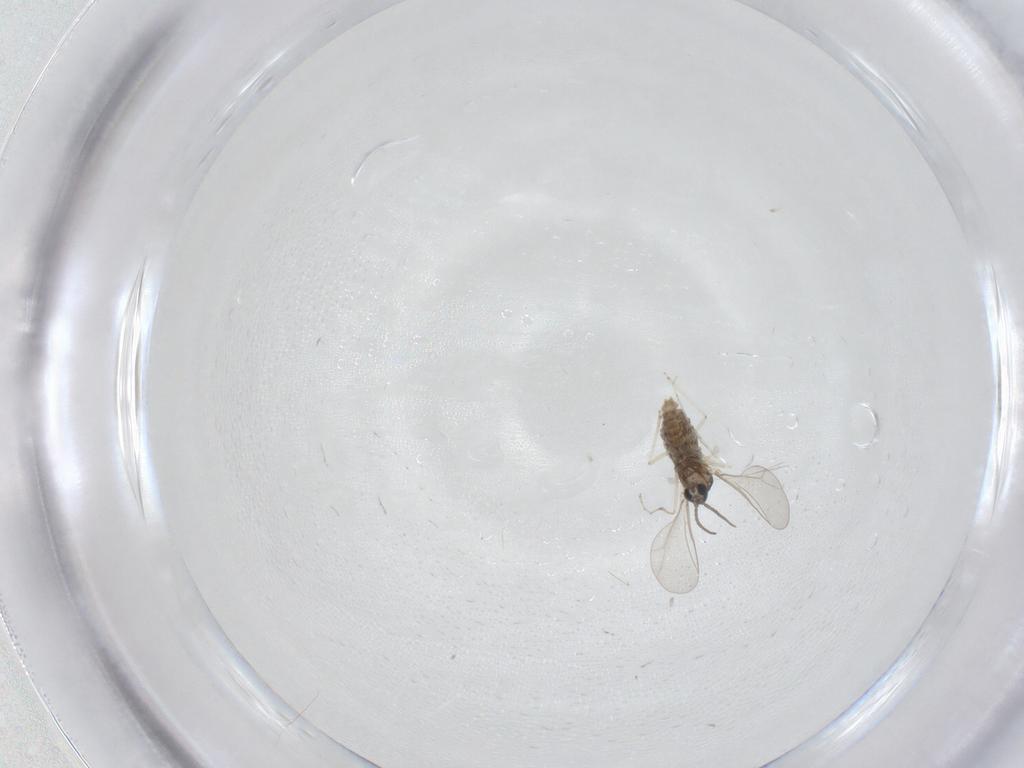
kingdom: Animalia
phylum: Arthropoda
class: Insecta
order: Diptera
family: Cecidomyiidae
